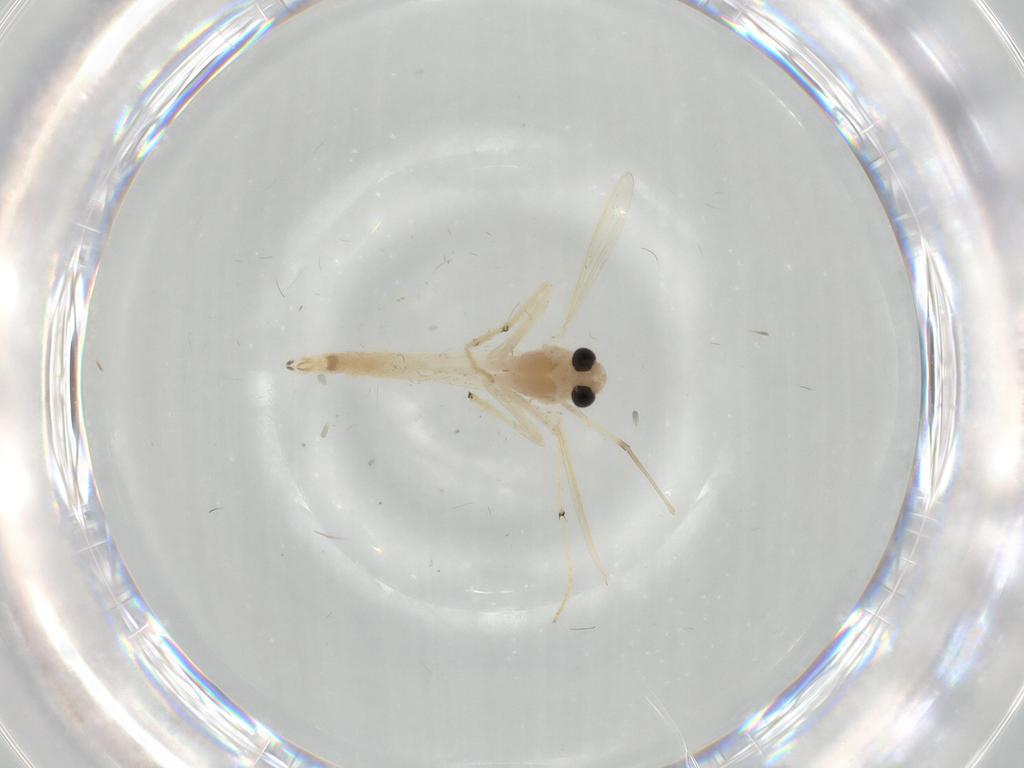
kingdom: Animalia
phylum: Arthropoda
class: Insecta
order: Diptera
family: Chironomidae
